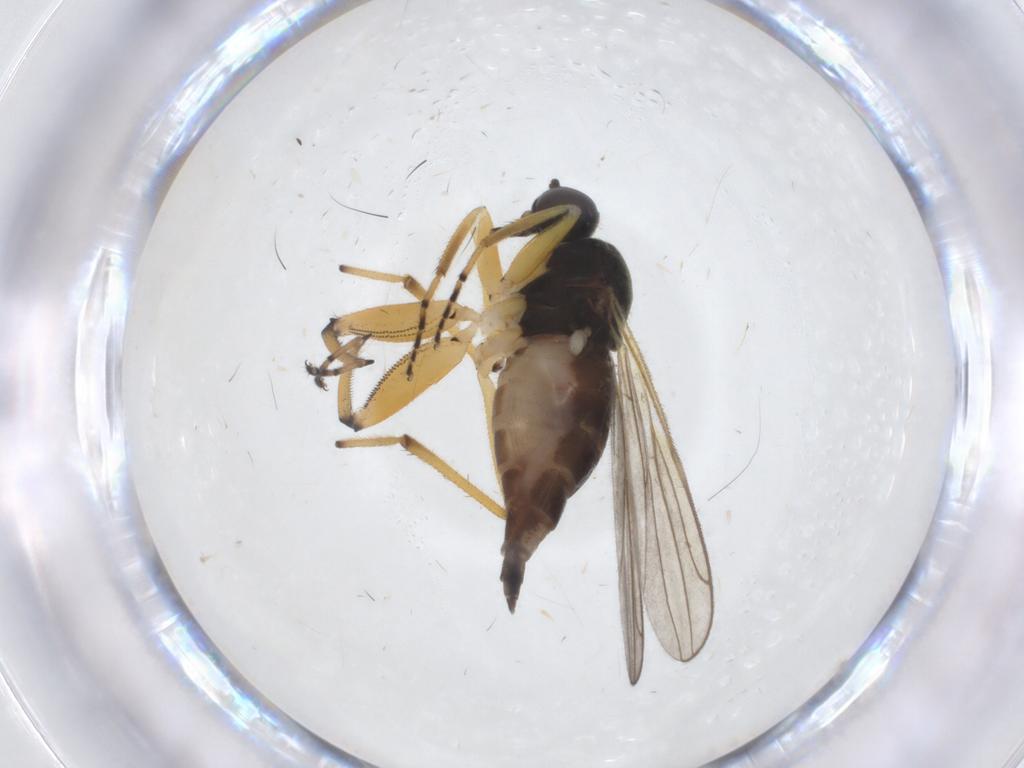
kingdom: Animalia
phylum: Arthropoda
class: Insecta
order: Diptera
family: Hybotidae
